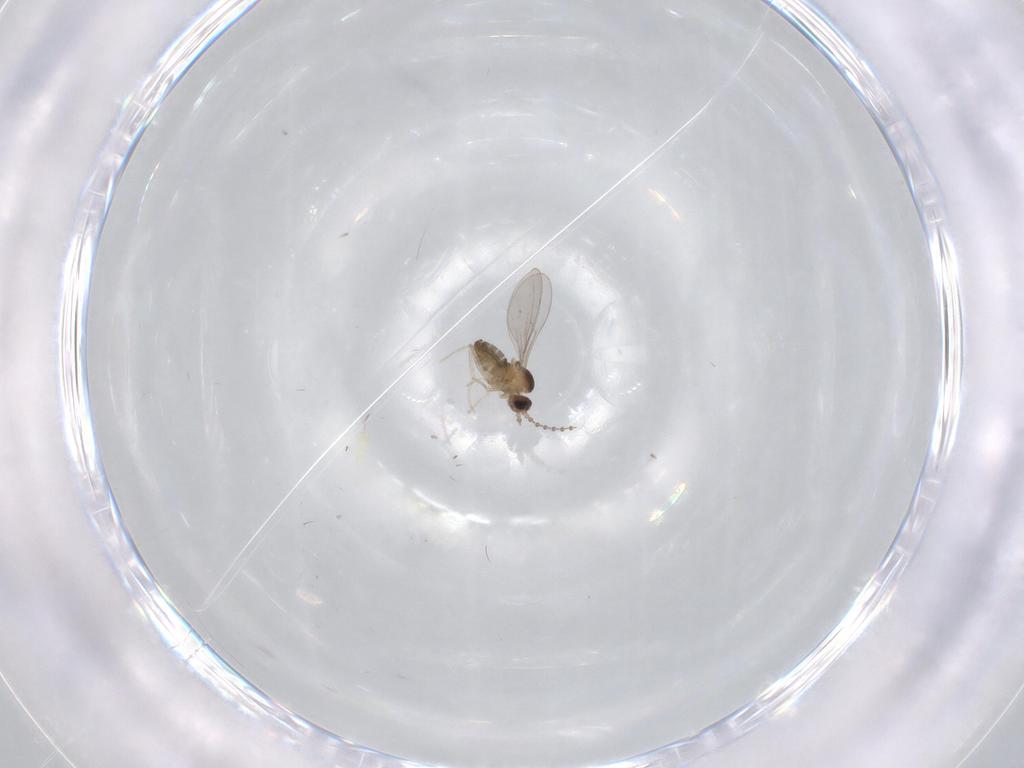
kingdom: Animalia
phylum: Arthropoda
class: Insecta
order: Diptera
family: Cecidomyiidae
